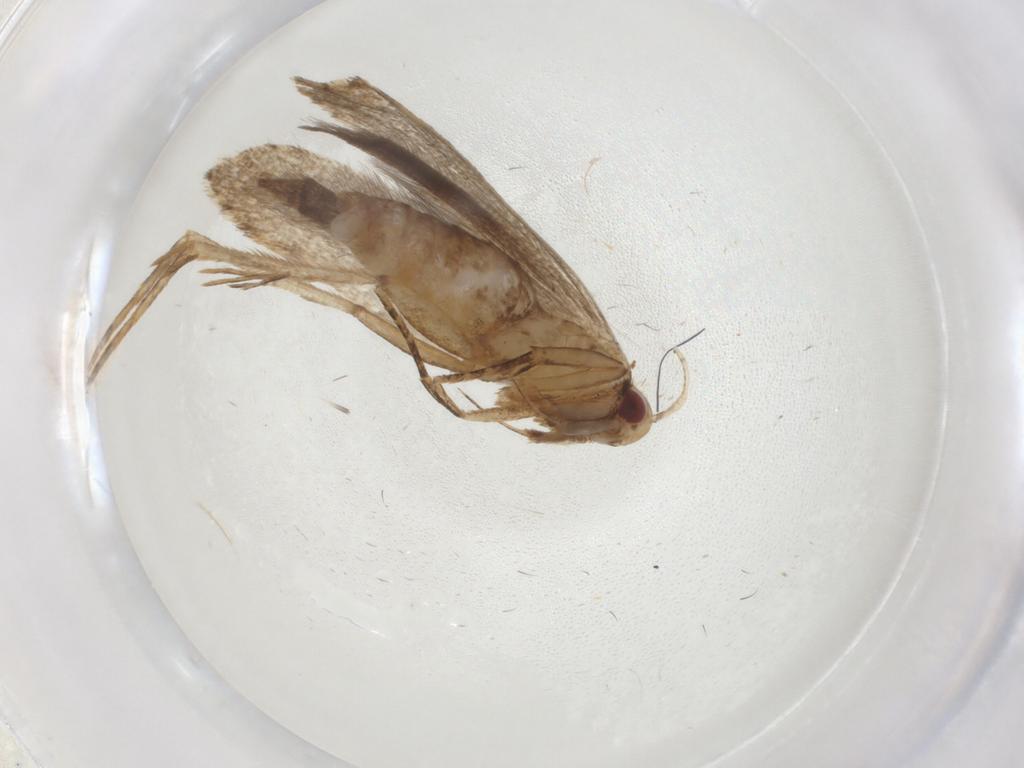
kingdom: Animalia
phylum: Arthropoda
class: Insecta
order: Lepidoptera
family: Gelechiidae
